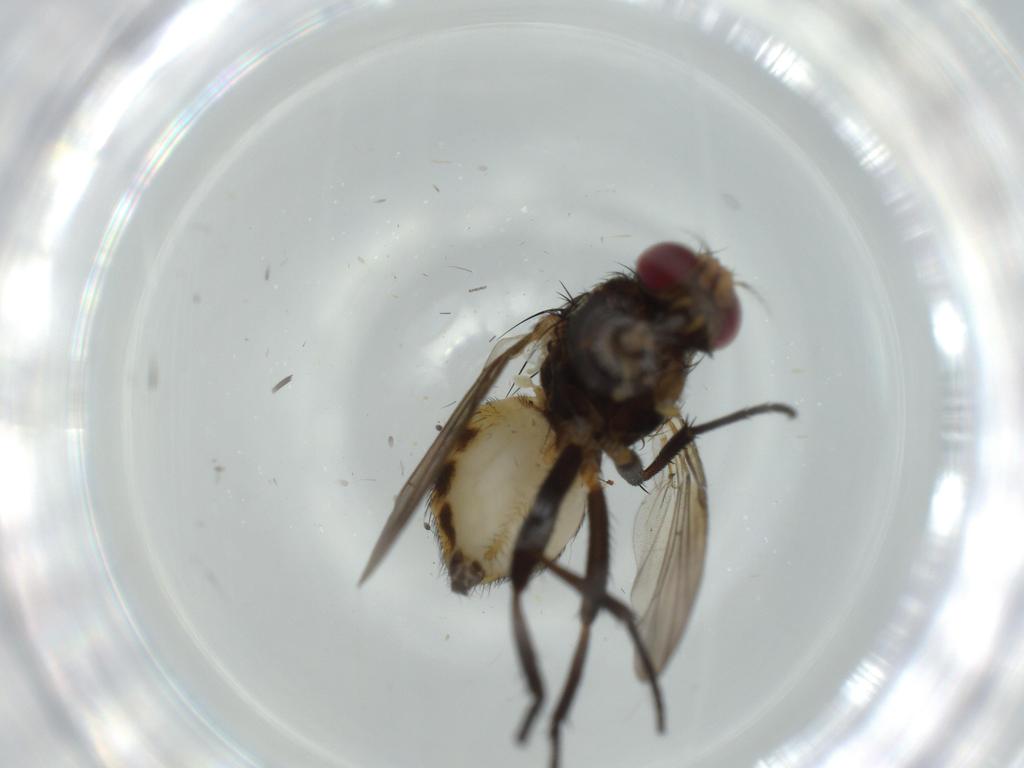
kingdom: Animalia
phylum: Arthropoda
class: Insecta
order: Diptera
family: Anthomyiidae
